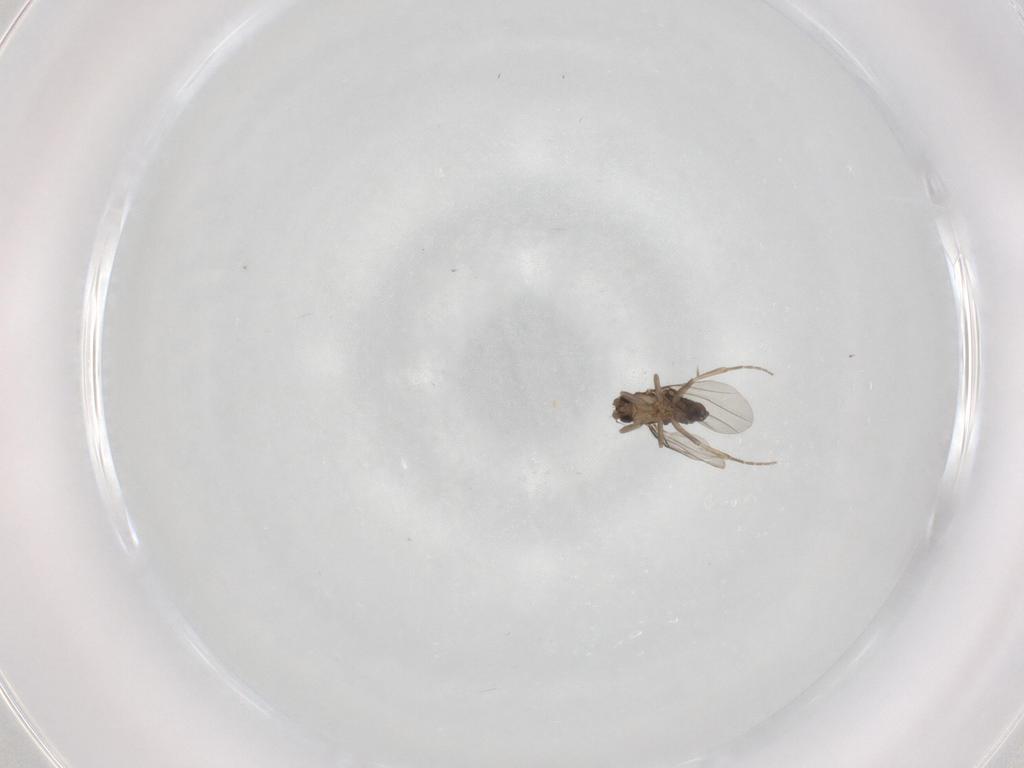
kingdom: Animalia
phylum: Arthropoda
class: Insecta
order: Diptera
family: Phoridae
